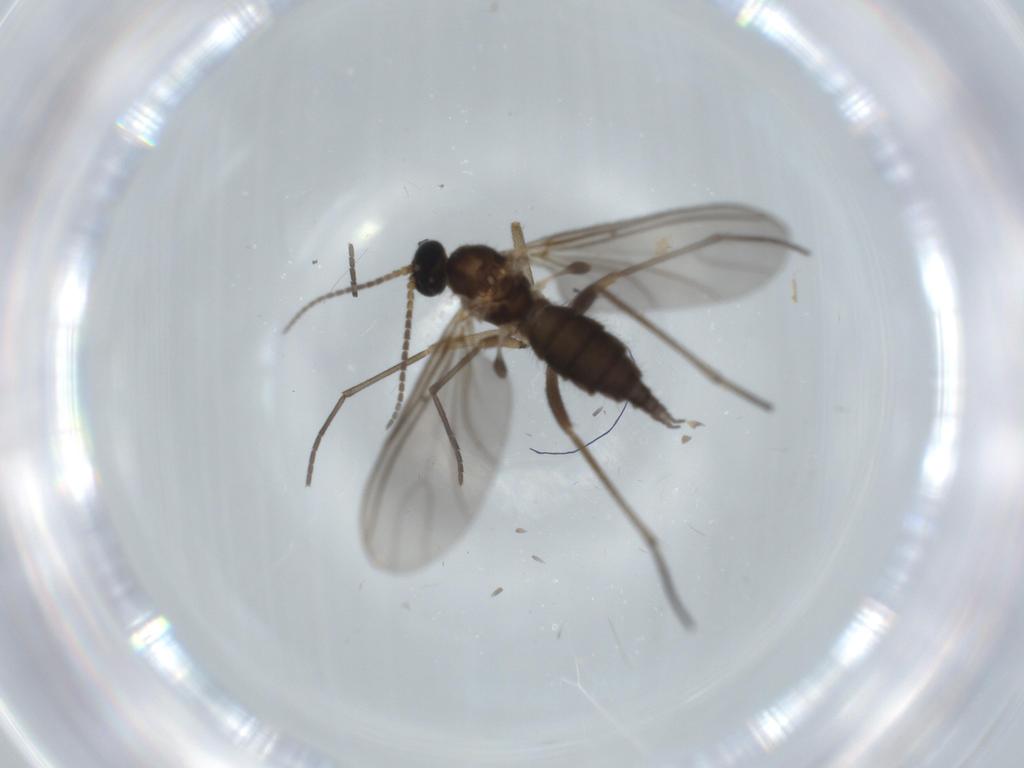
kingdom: Animalia
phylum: Arthropoda
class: Insecta
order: Diptera
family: Sciaridae
